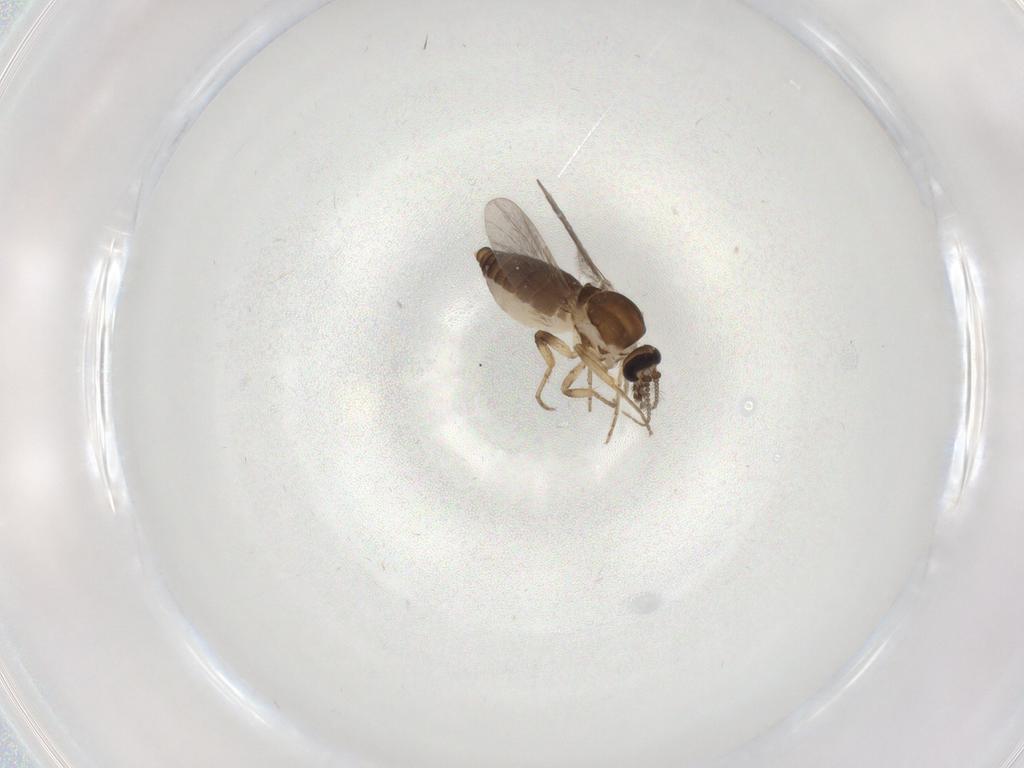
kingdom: Animalia
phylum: Arthropoda
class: Insecta
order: Diptera
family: Ceratopogonidae
